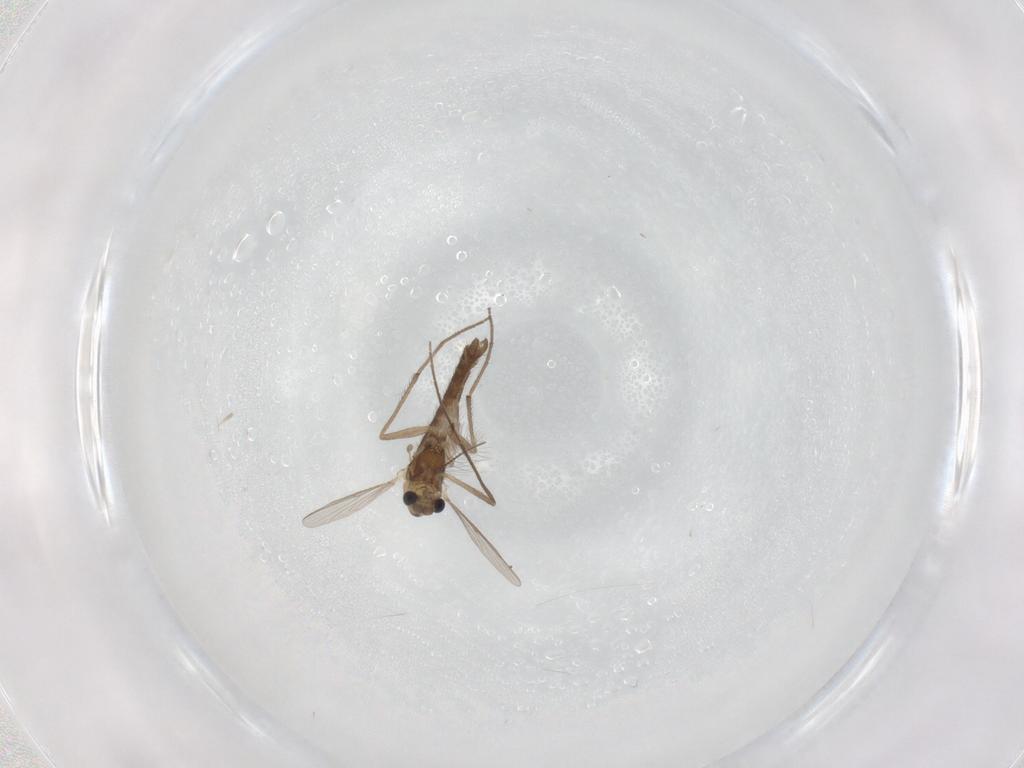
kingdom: Animalia
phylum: Arthropoda
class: Insecta
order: Diptera
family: Chironomidae
